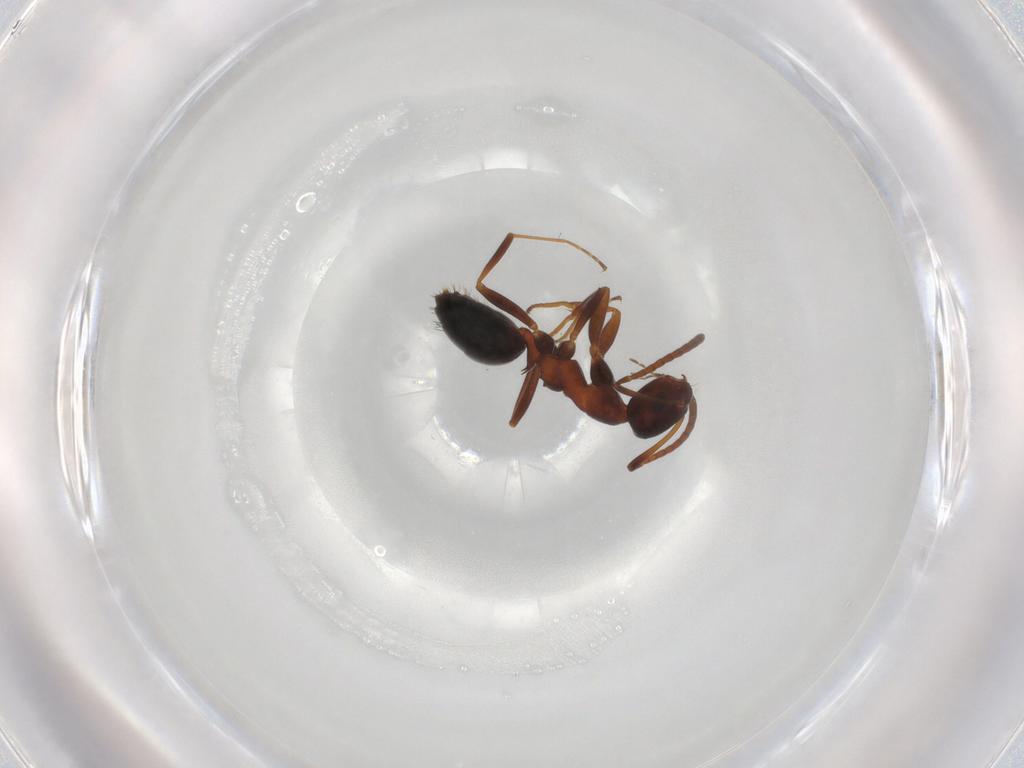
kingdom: Animalia
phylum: Arthropoda
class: Insecta
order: Hymenoptera
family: Formicidae
